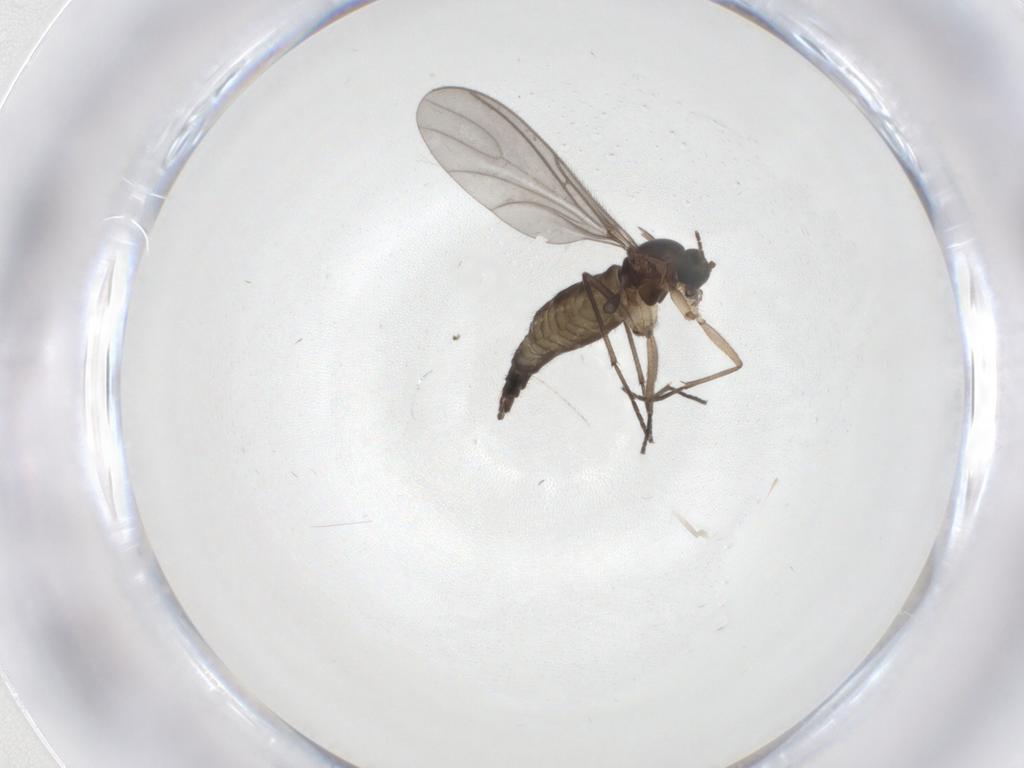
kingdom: Animalia
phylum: Arthropoda
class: Insecta
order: Diptera
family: Sciaridae
